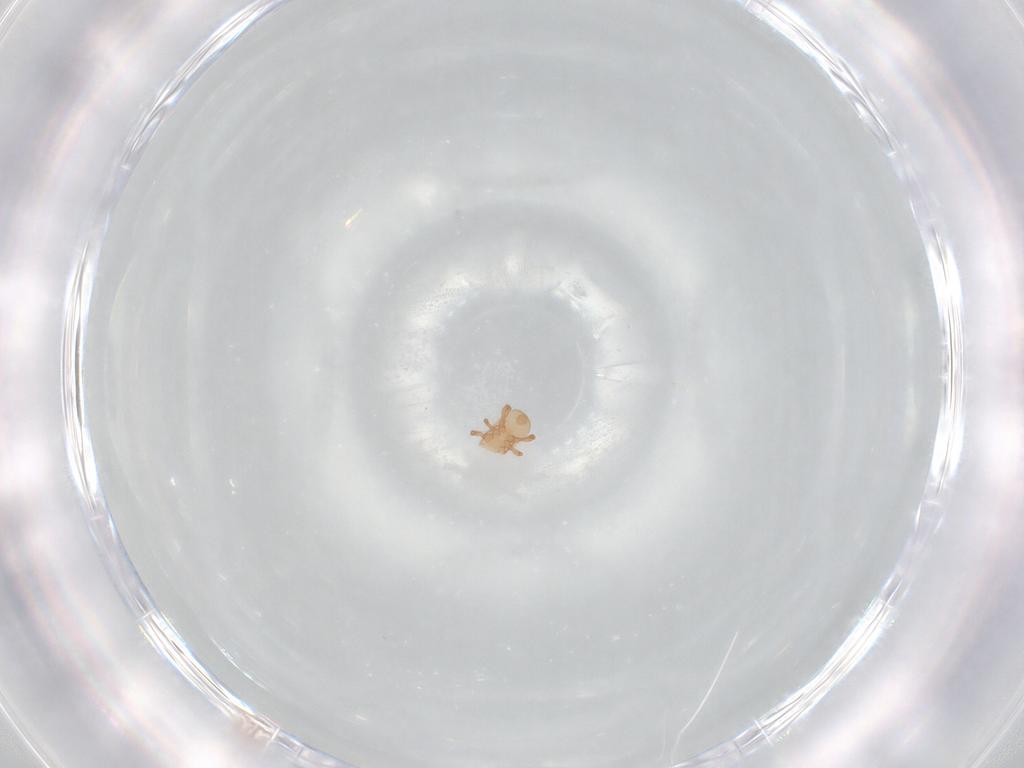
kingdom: Animalia
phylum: Arthropoda
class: Arachnida
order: Mesostigmata
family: Ascidae
